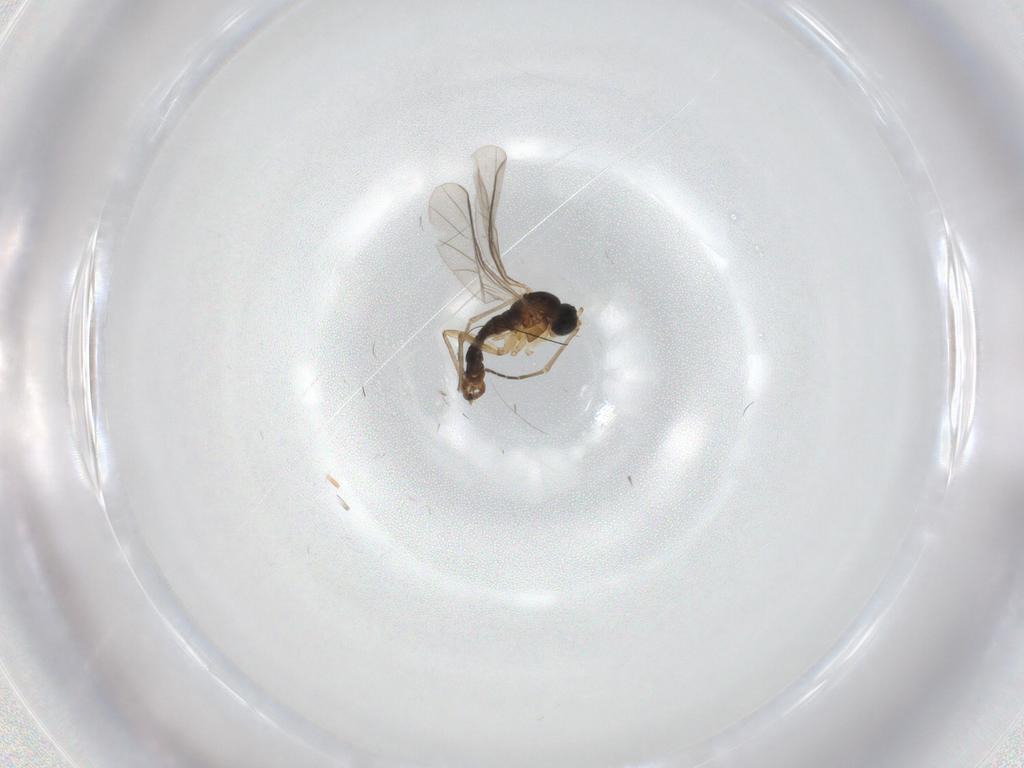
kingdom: Animalia
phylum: Arthropoda
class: Insecta
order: Diptera
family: Sciaridae
